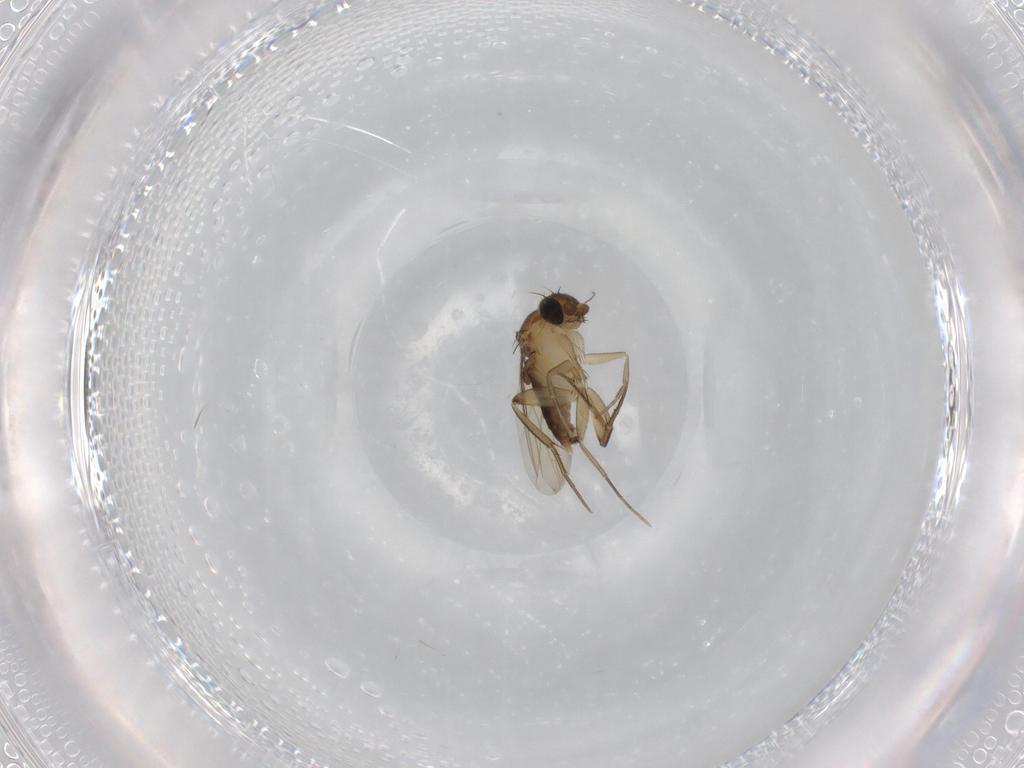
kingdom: Animalia
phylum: Arthropoda
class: Insecta
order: Diptera
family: Phoridae
